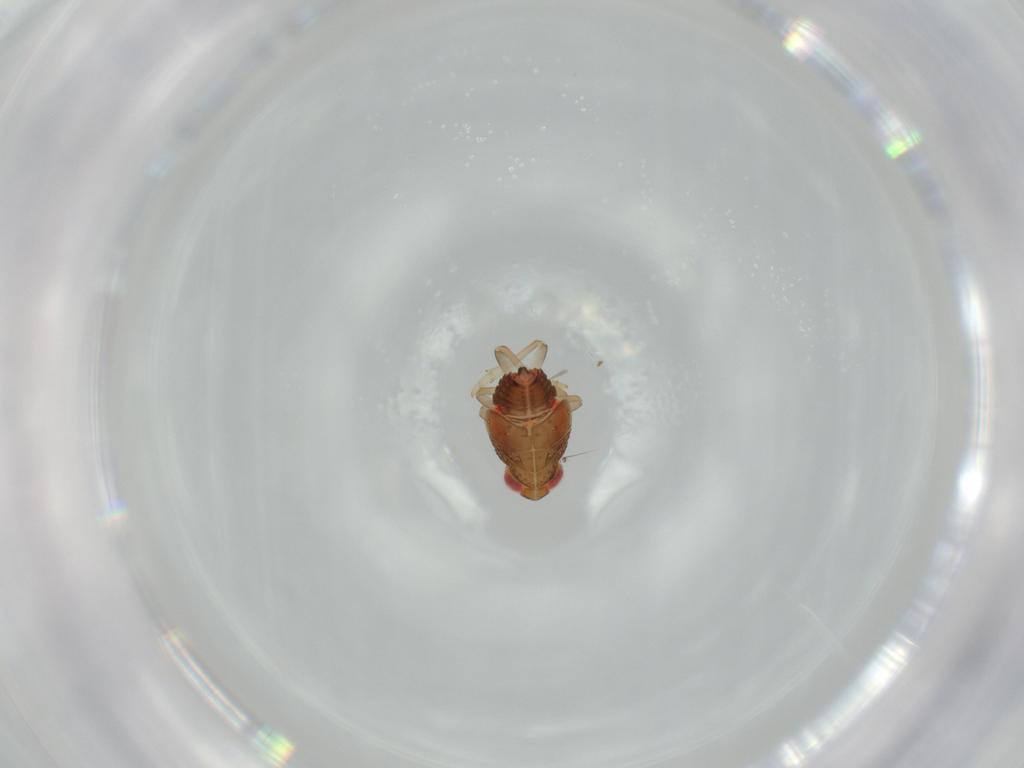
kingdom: Animalia
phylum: Arthropoda
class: Insecta
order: Hemiptera
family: Issidae
